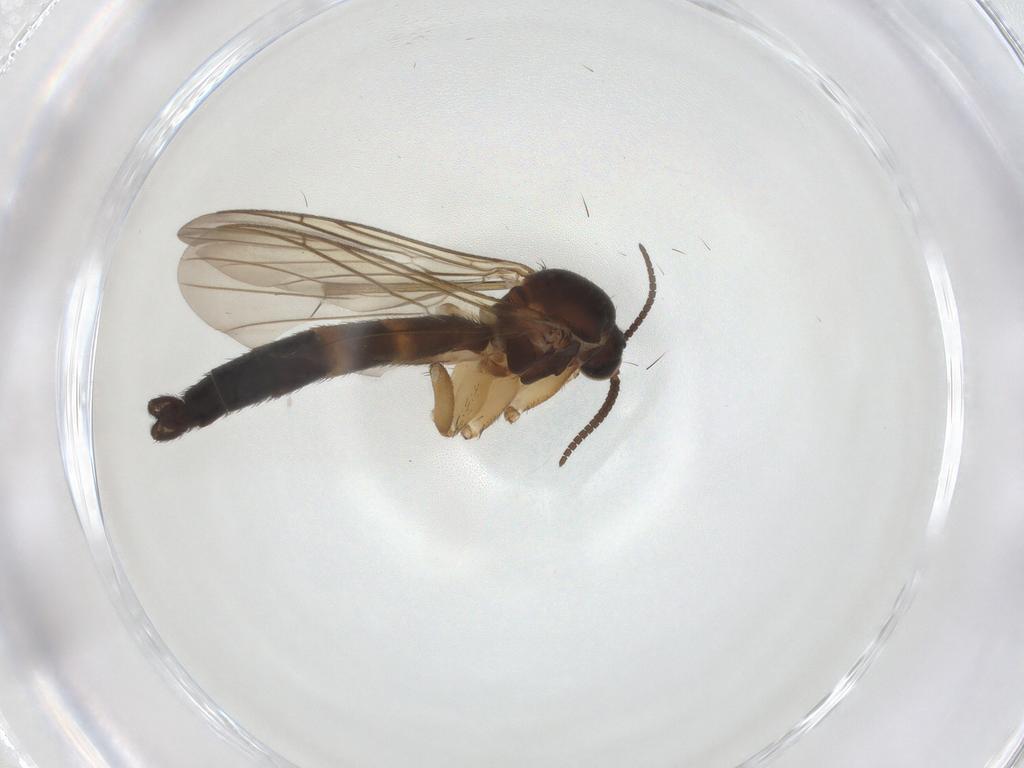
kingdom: Animalia
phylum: Arthropoda
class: Insecta
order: Diptera
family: Keroplatidae
